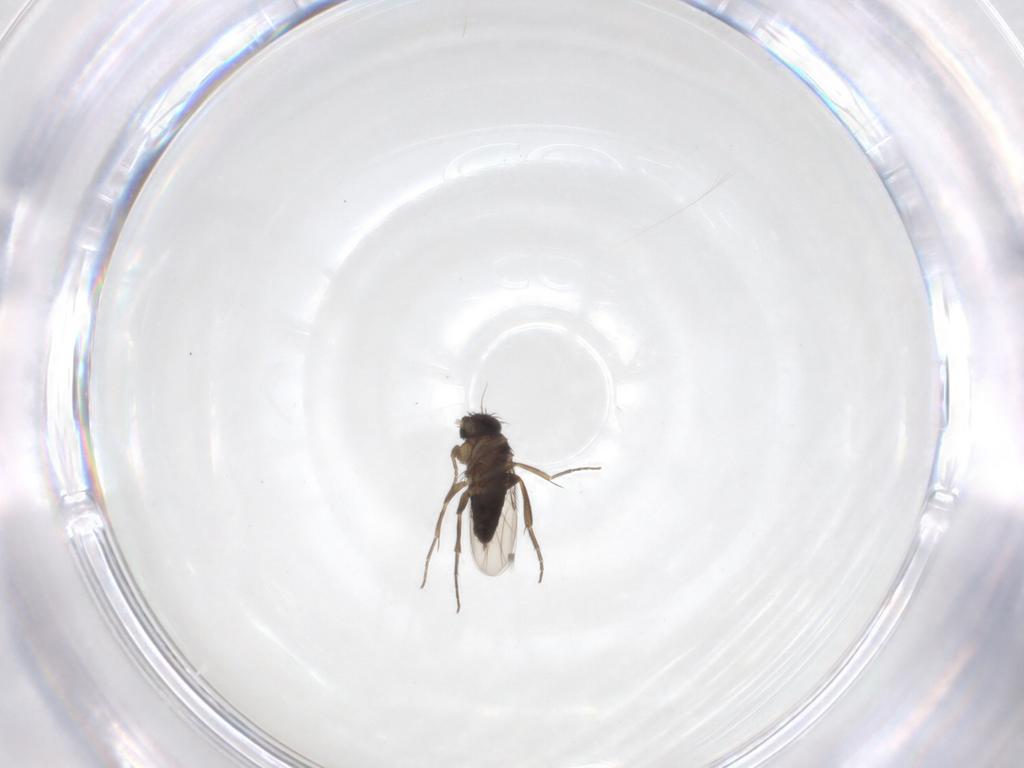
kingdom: Animalia
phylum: Arthropoda
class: Insecta
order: Diptera
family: Phoridae
